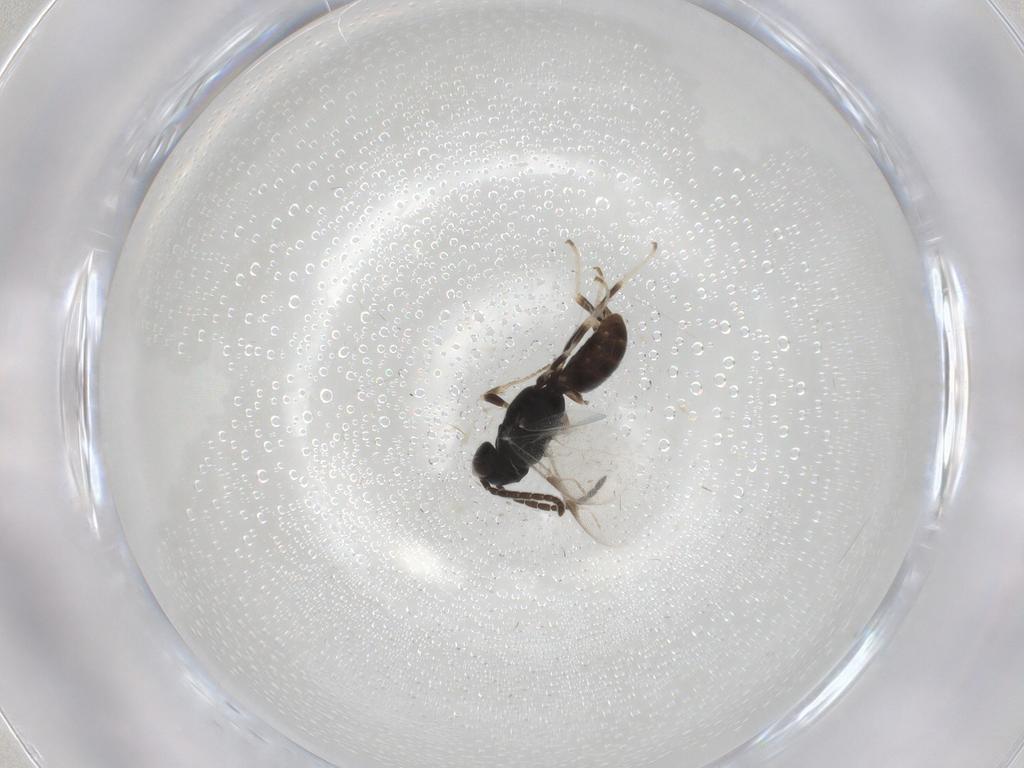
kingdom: Animalia
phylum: Arthropoda
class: Insecta
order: Hymenoptera
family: Dryinidae
